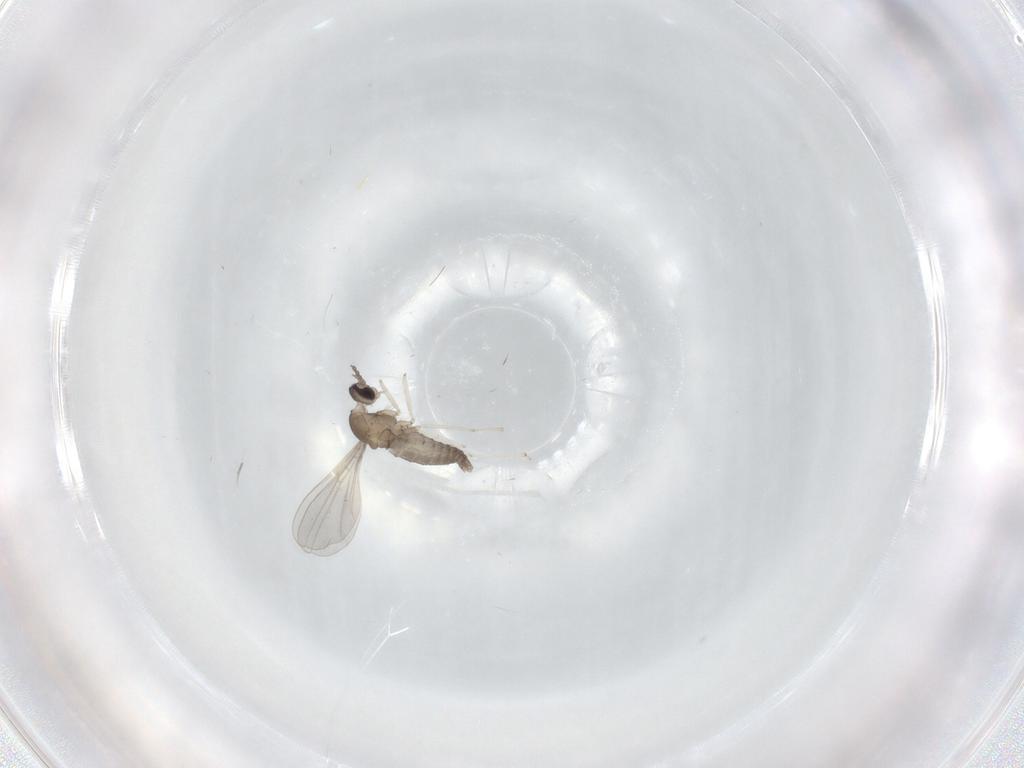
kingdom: Animalia
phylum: Arthropoda
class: Insecta
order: Diptera
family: Cecidomyiidae
